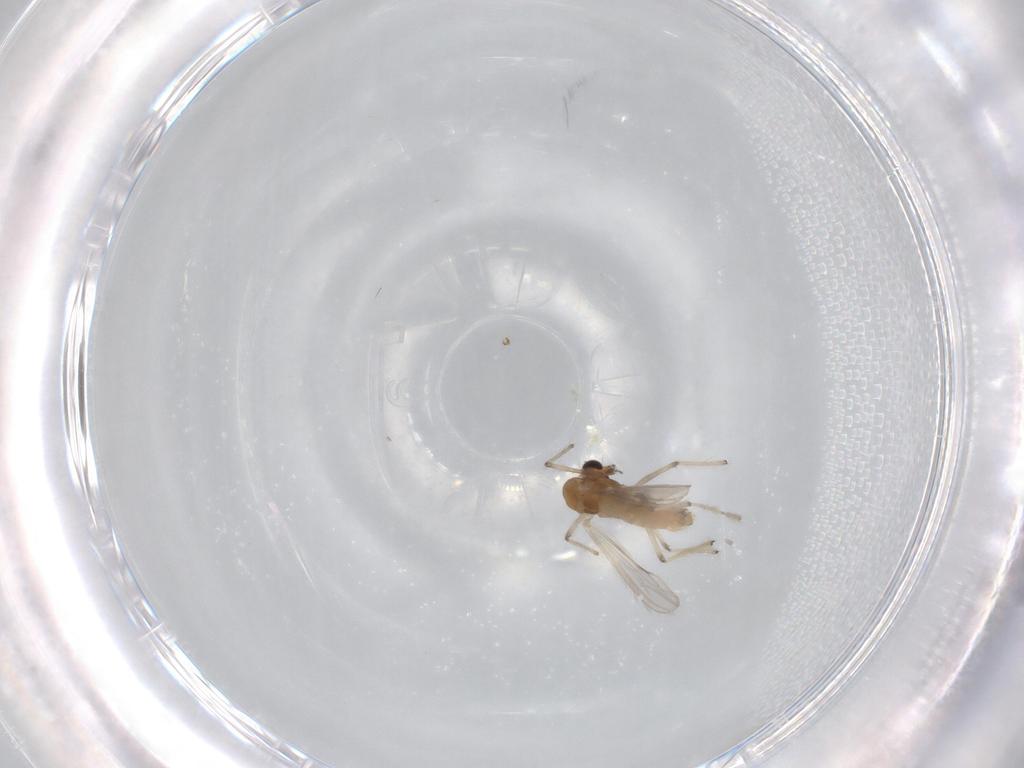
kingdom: Animalia
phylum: Arthropoda
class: Insecta
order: Diptera
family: Chironomidae
